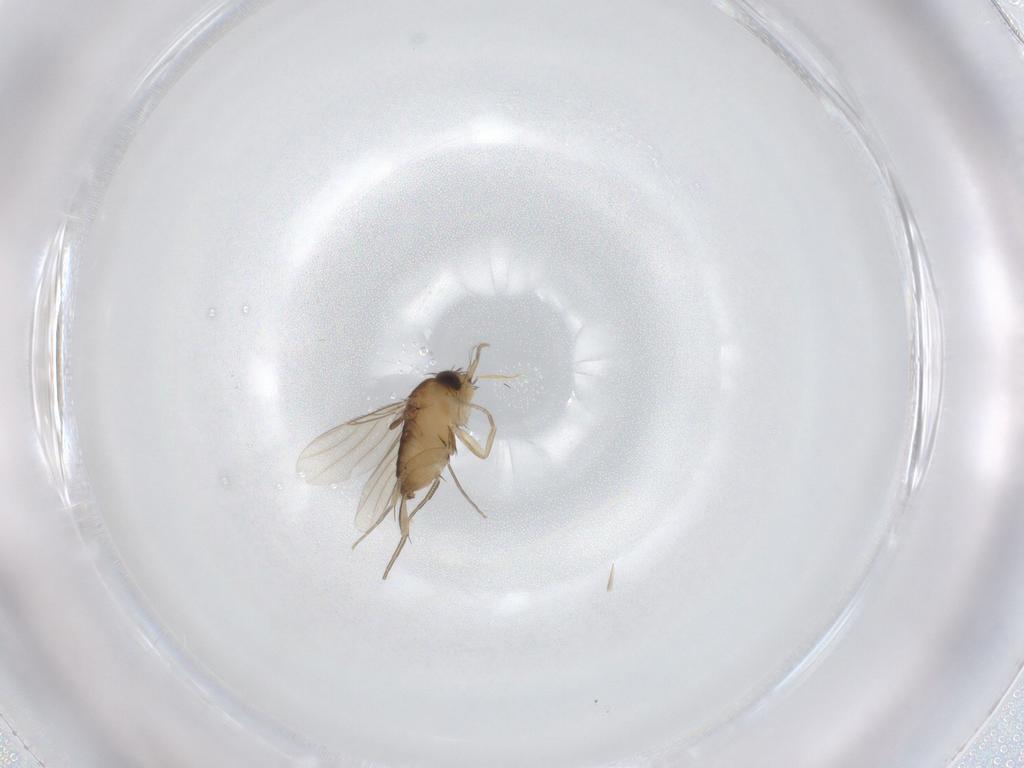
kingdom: Animalia
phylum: Arthropoda
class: Insecta
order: Diptera
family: Phoridae
